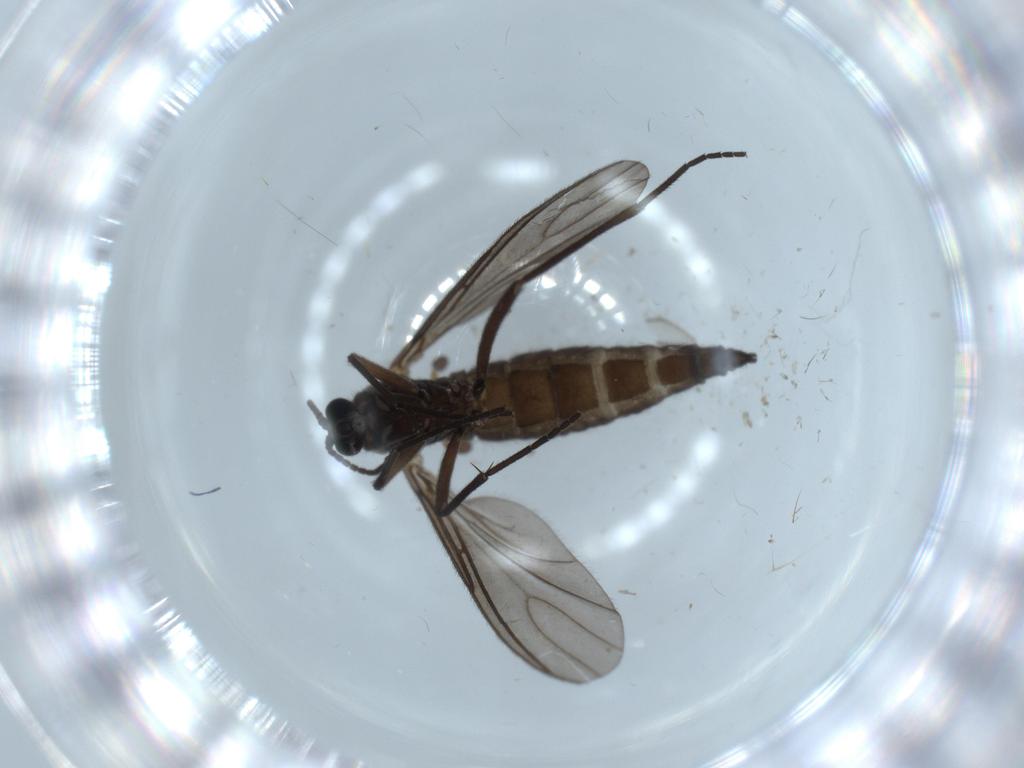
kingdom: Animalia
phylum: Arthropoda
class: Insecta
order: Diptera
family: Sciaridae
